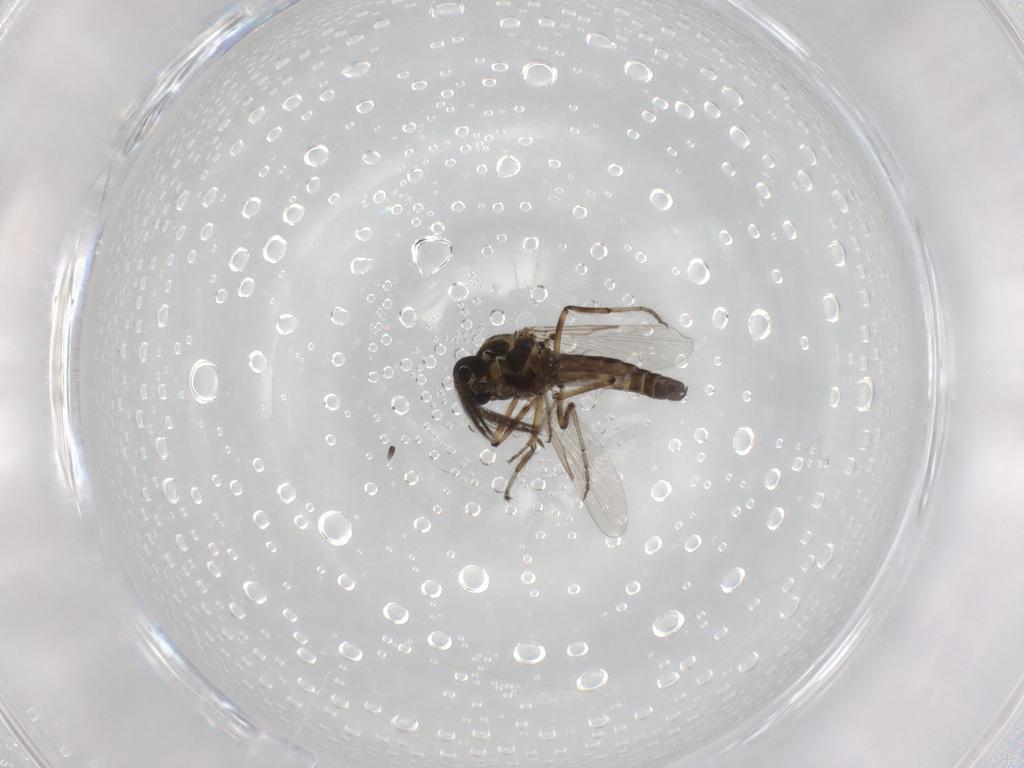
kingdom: Animalia
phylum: Arthropoda
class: Insecta
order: Diptera
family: Ceratopogonidae
